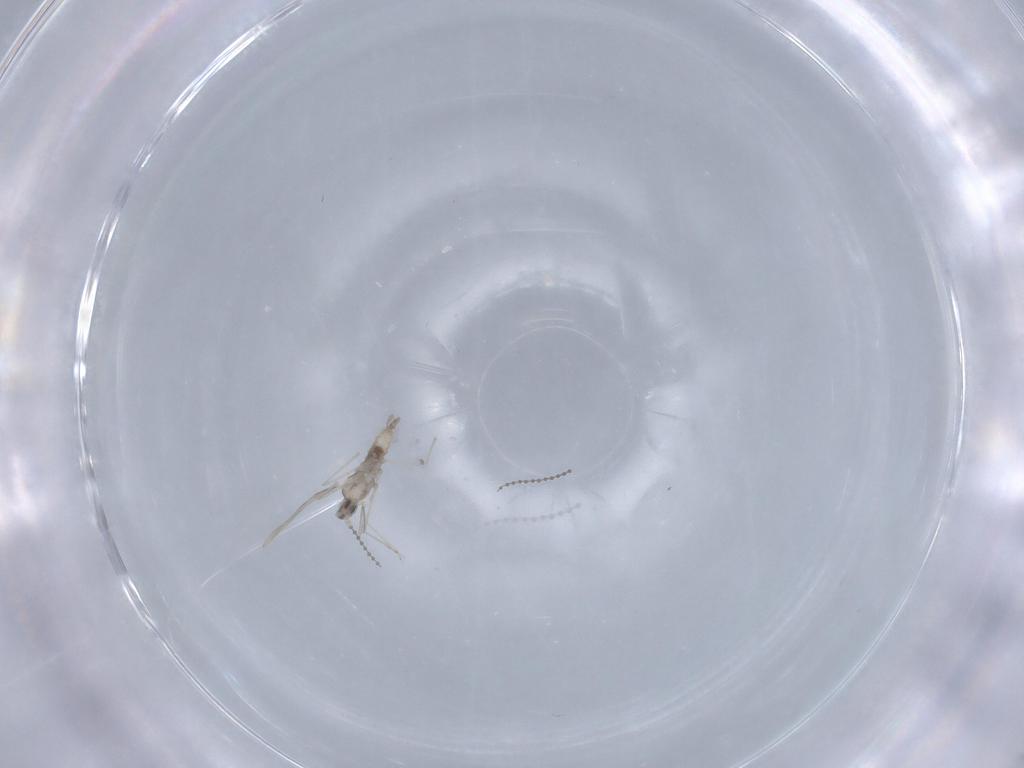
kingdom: Animalia
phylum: Arthropoda
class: Insecta
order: Diptera
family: Cecidomyiidae
